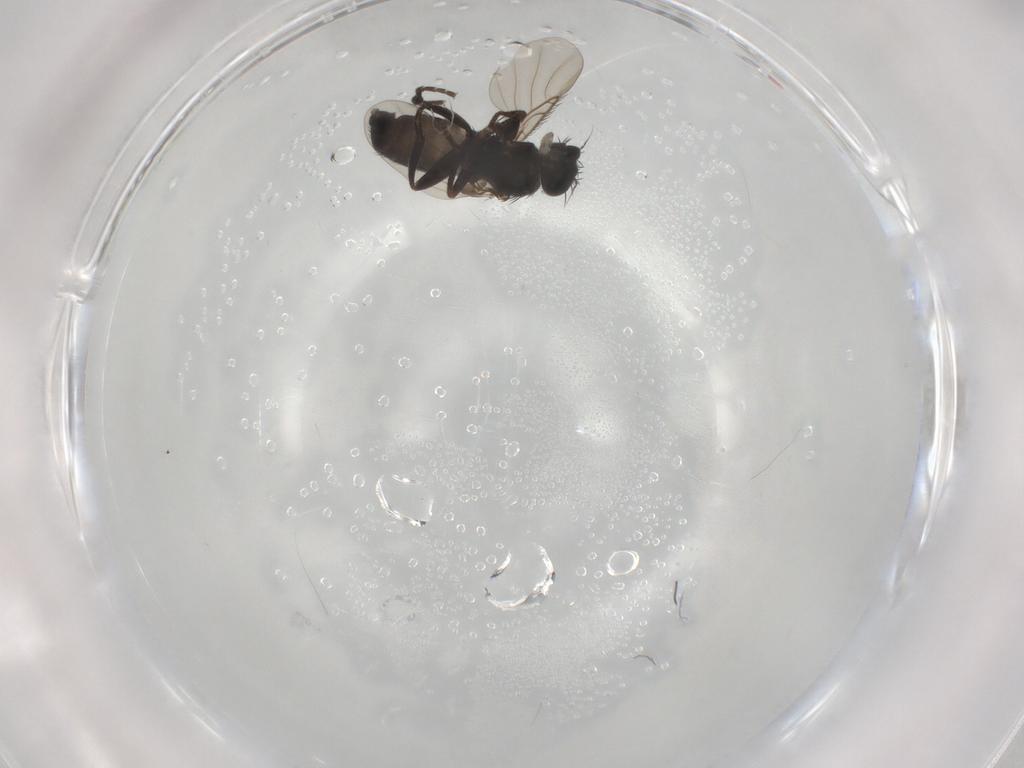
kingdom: Animalia
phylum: Arthropoda
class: Insecta
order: Diptera
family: Phoridae
